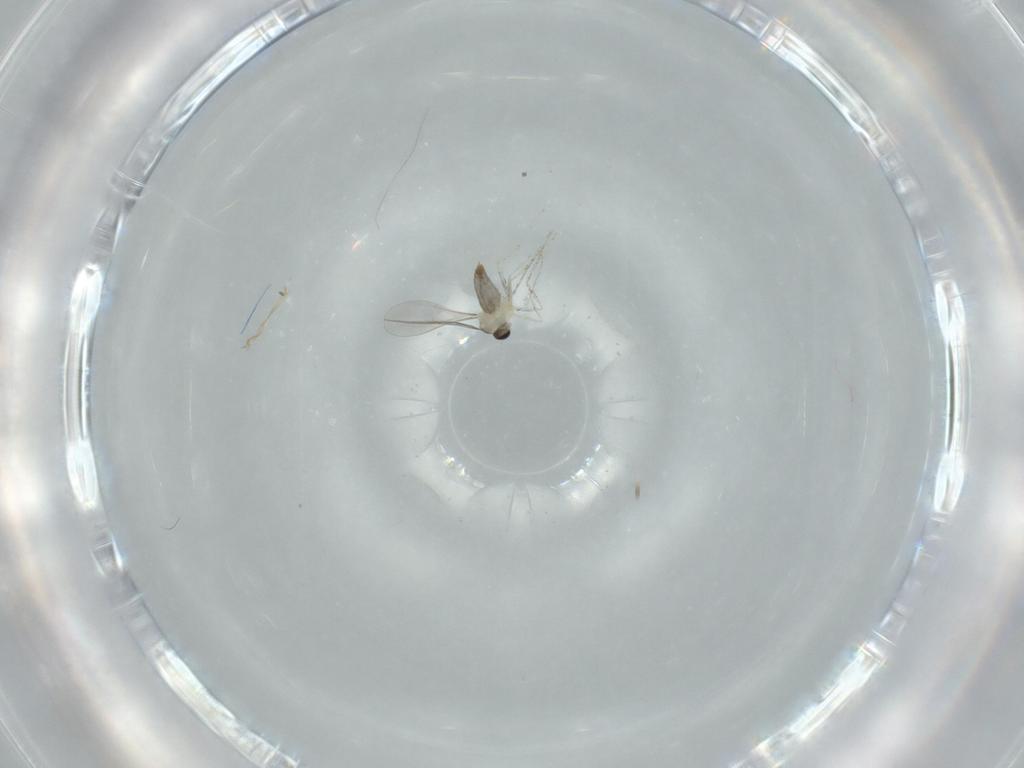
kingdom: Animalia
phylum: Arthropoda
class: Insecta
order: Diptera
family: Cecidomyiidae
